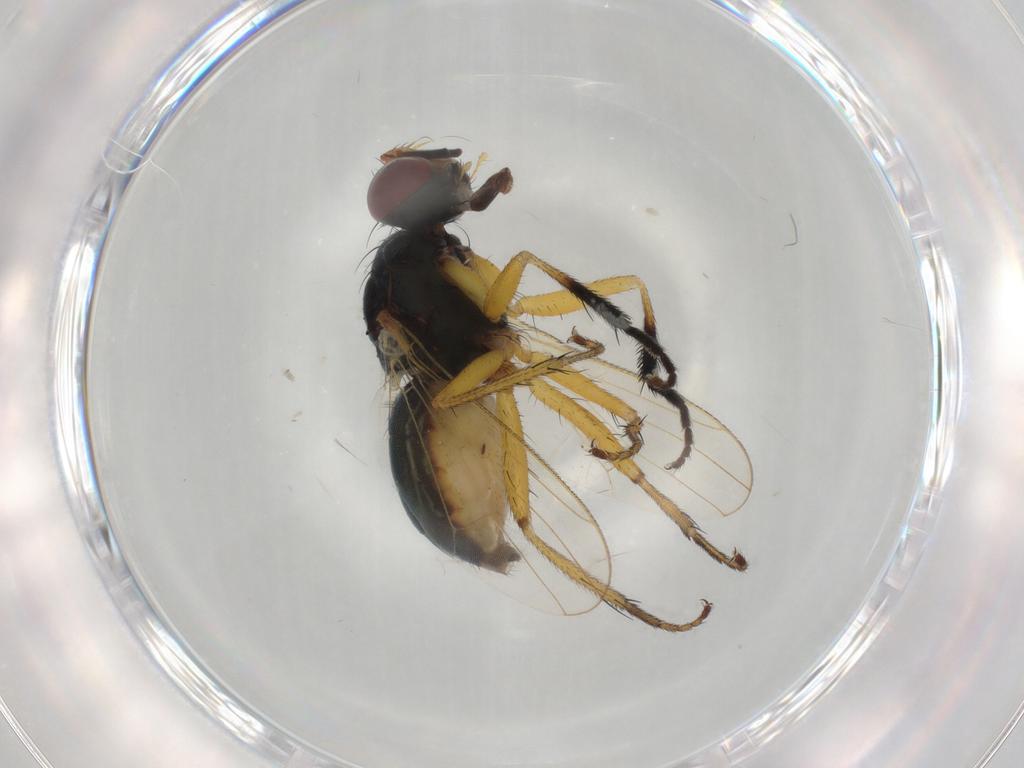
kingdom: Animalia
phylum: Arthropoda
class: Insecta
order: Diptera
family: Muscidae
